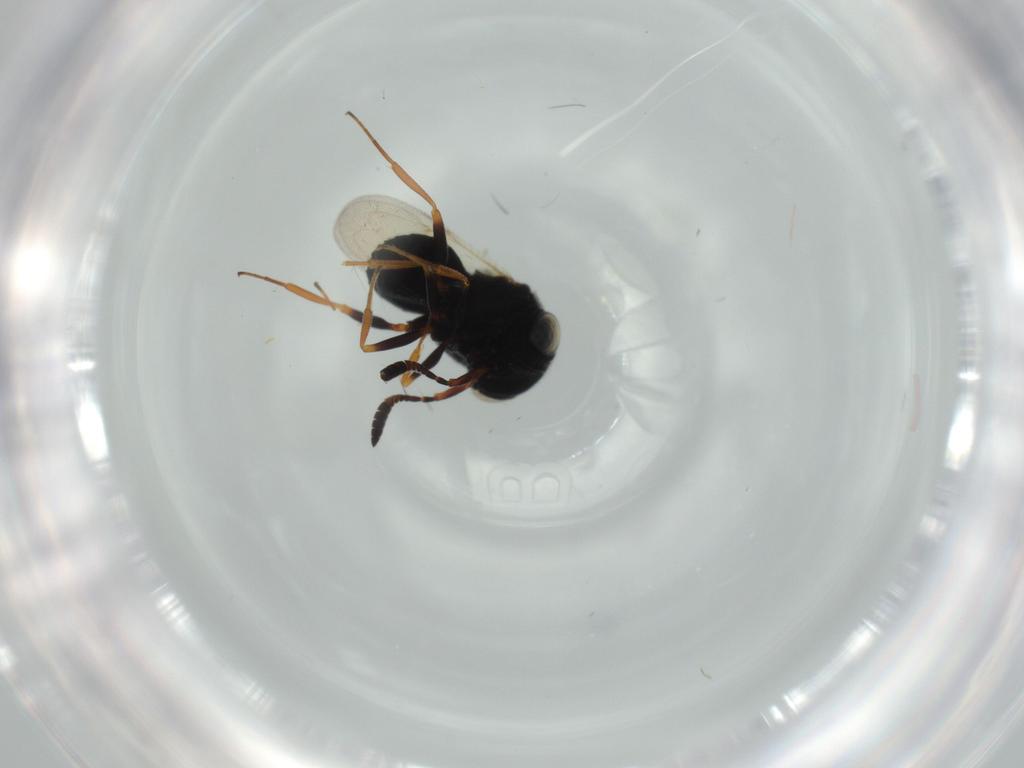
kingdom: Animalia
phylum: Arthropoda
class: Insecta
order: Hymenoptera
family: Scelionidae
